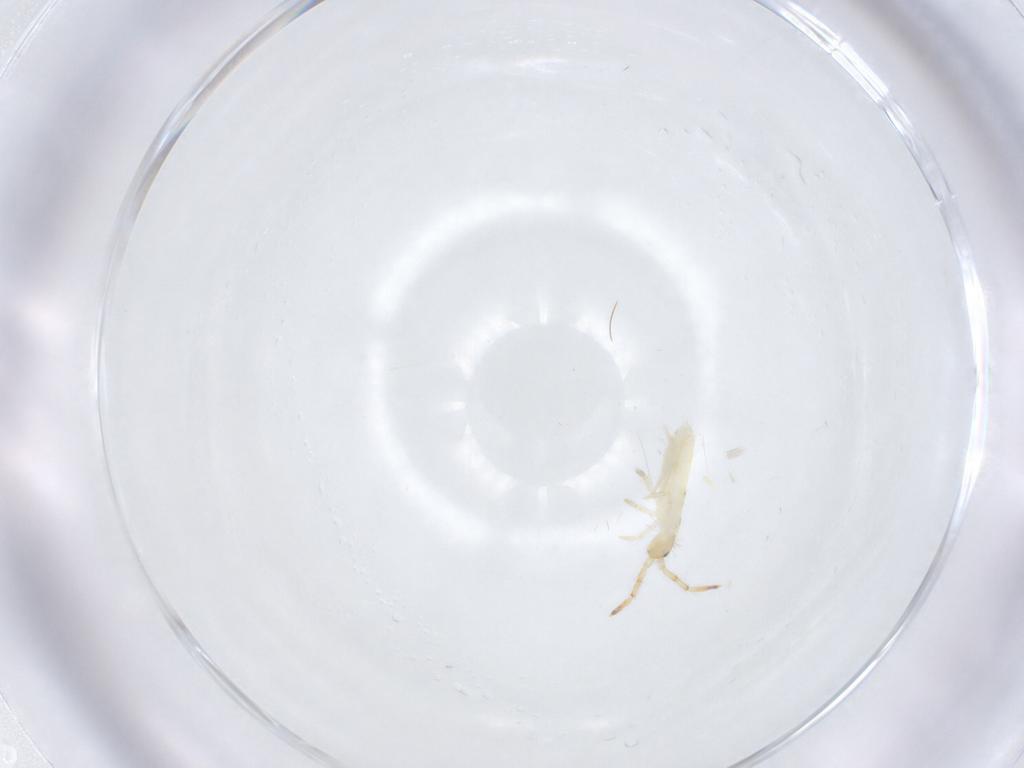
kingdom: Animalia
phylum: Arthropoda
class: Collembola
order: Entomobryomorpha
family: Entomobryidae
